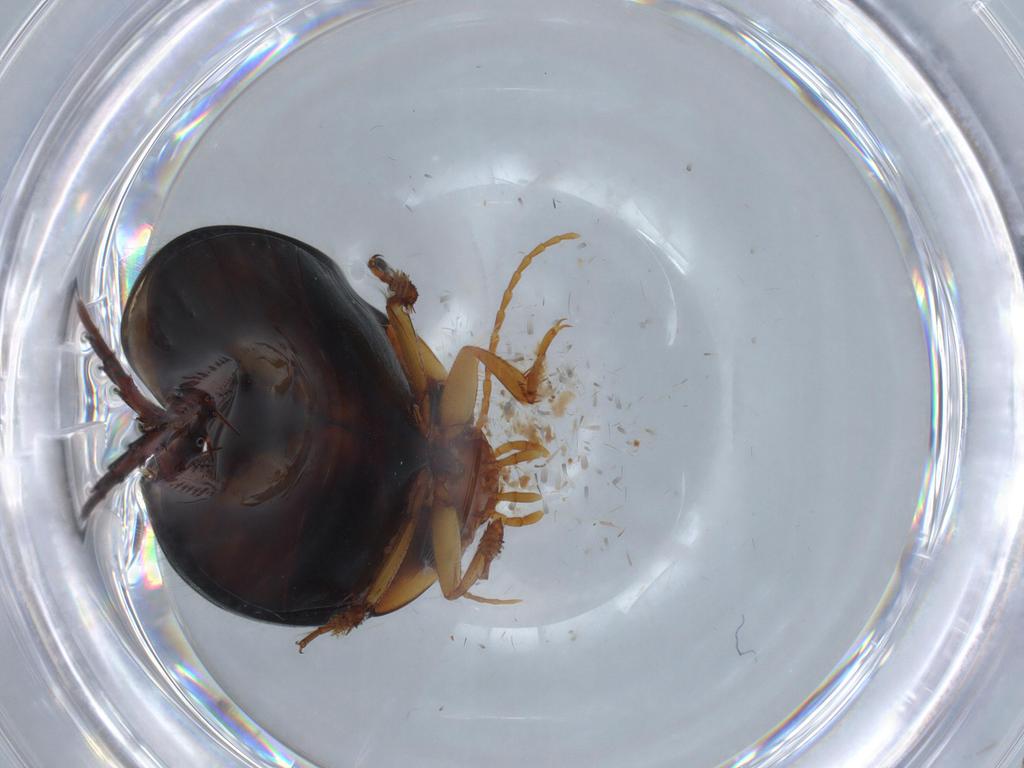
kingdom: Animalia
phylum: Arthropoda
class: Insecta
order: Coleoptera
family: Dytiscidae
